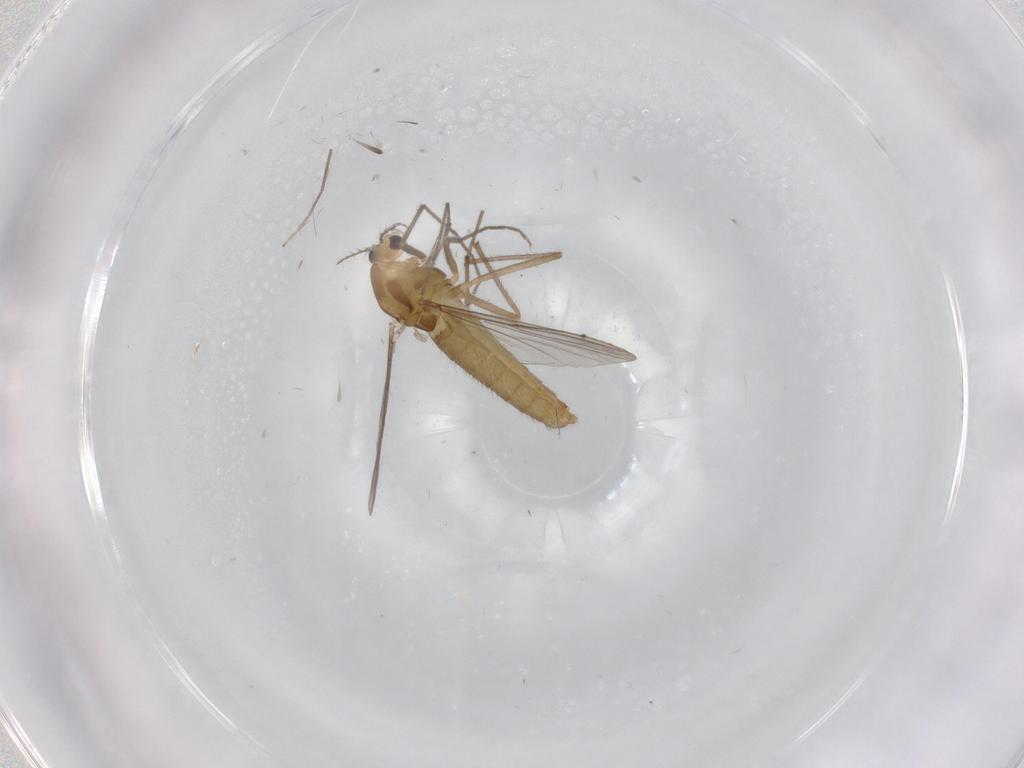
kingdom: Animalia
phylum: Arthropoda
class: Insecta
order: Diptera
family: Chironomidae
